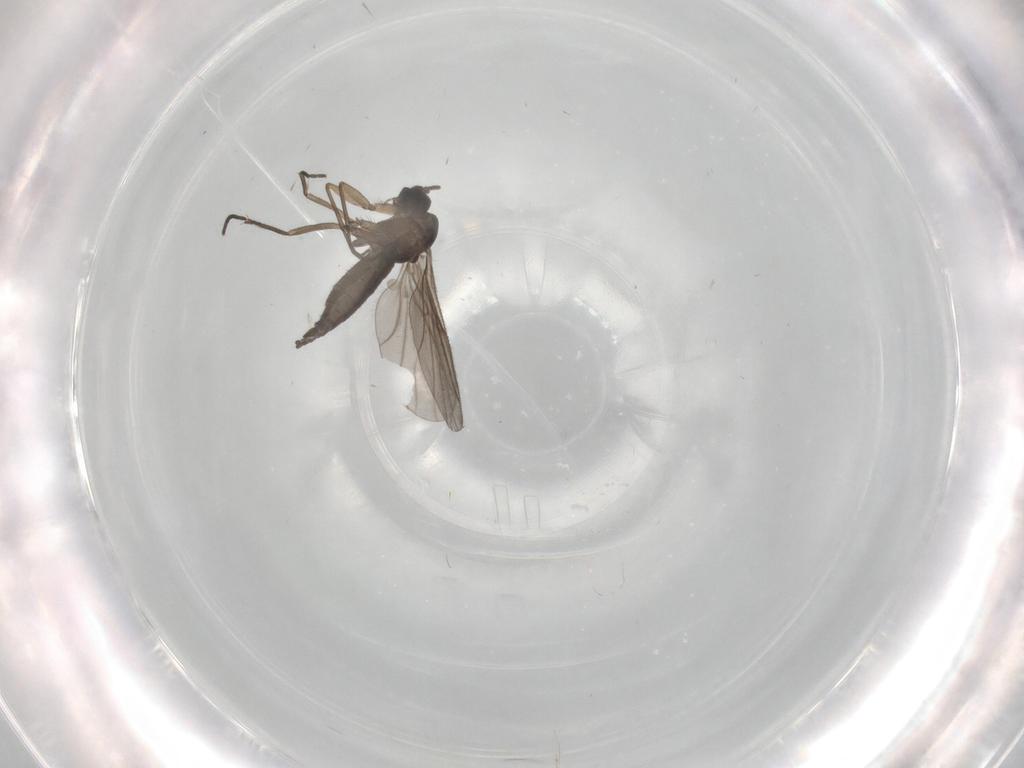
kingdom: Animalia
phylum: Arthropoda
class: Insecta
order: Diptera
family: Sciaridae
